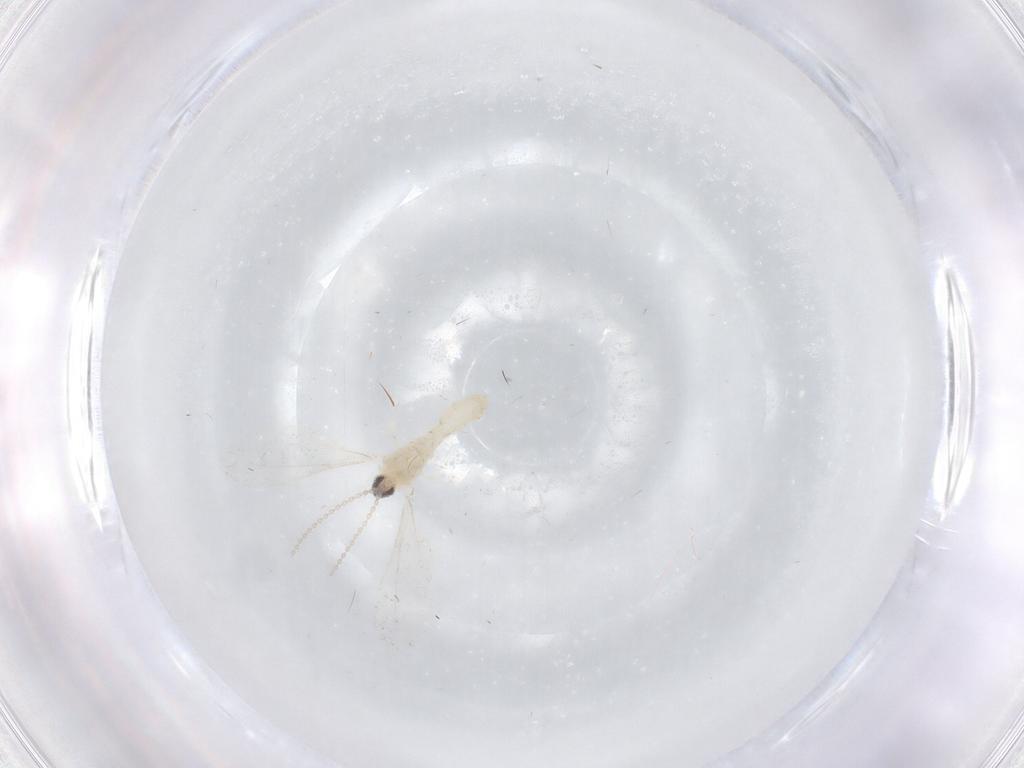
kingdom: Animalia
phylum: Arthropoda
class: Insecta
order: Diptera
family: Cecidomyiidae
